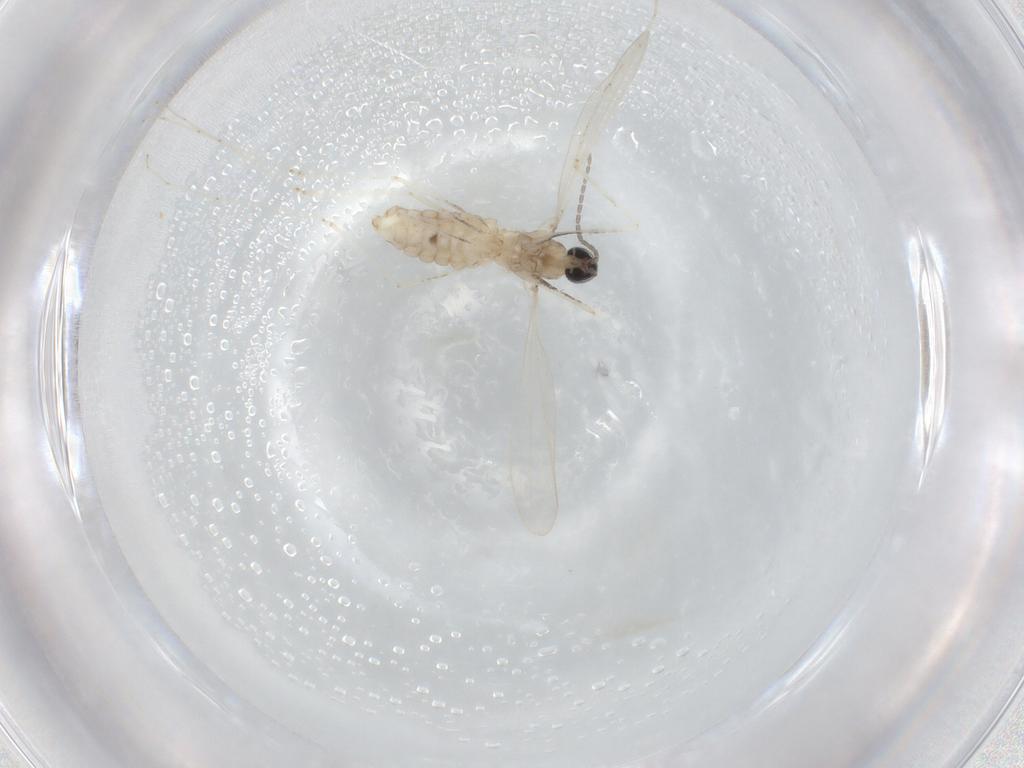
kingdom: Animalia
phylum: Arthropoda
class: Insecta
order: Diptera
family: Cecidomyiidae
